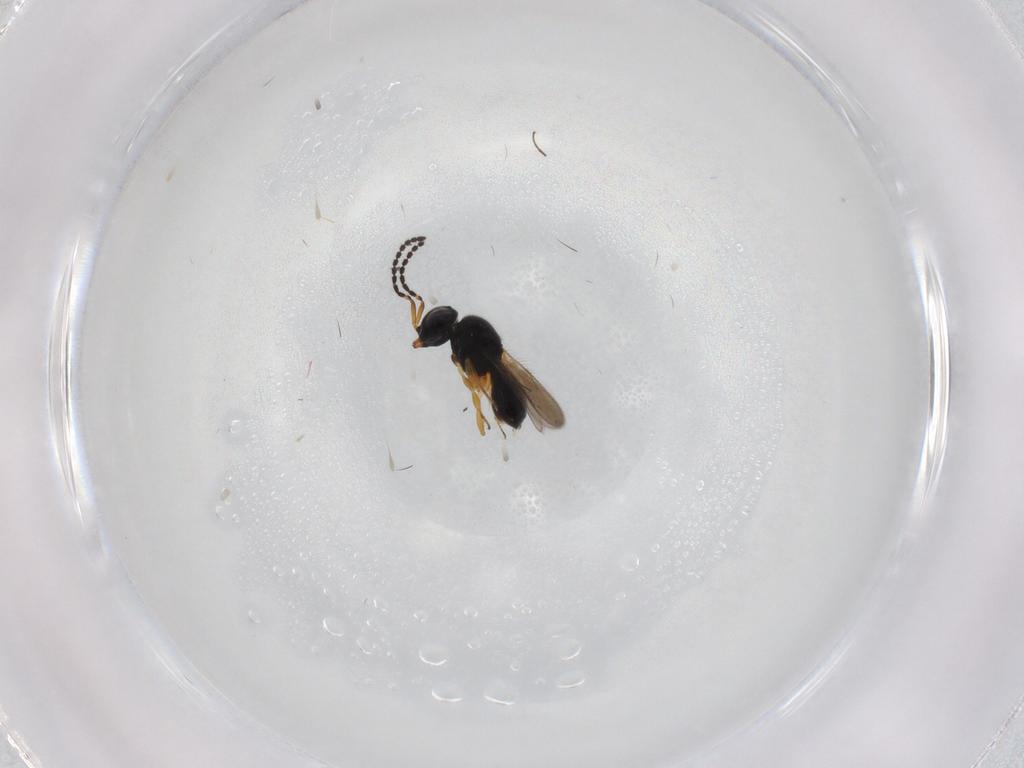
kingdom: Animalia
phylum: Arthropoda
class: Insecta
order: Hymenoptera
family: Scelionidae
